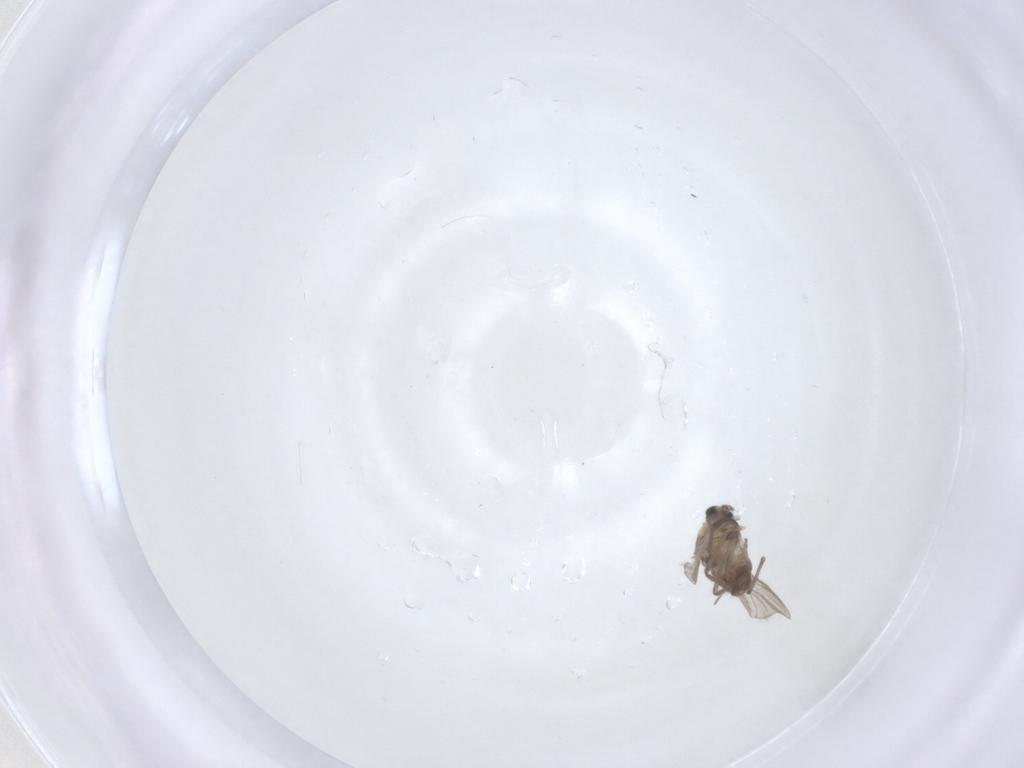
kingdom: Animalia
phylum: Arthropoda
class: Insecta
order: Diptera
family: Chironomidae
